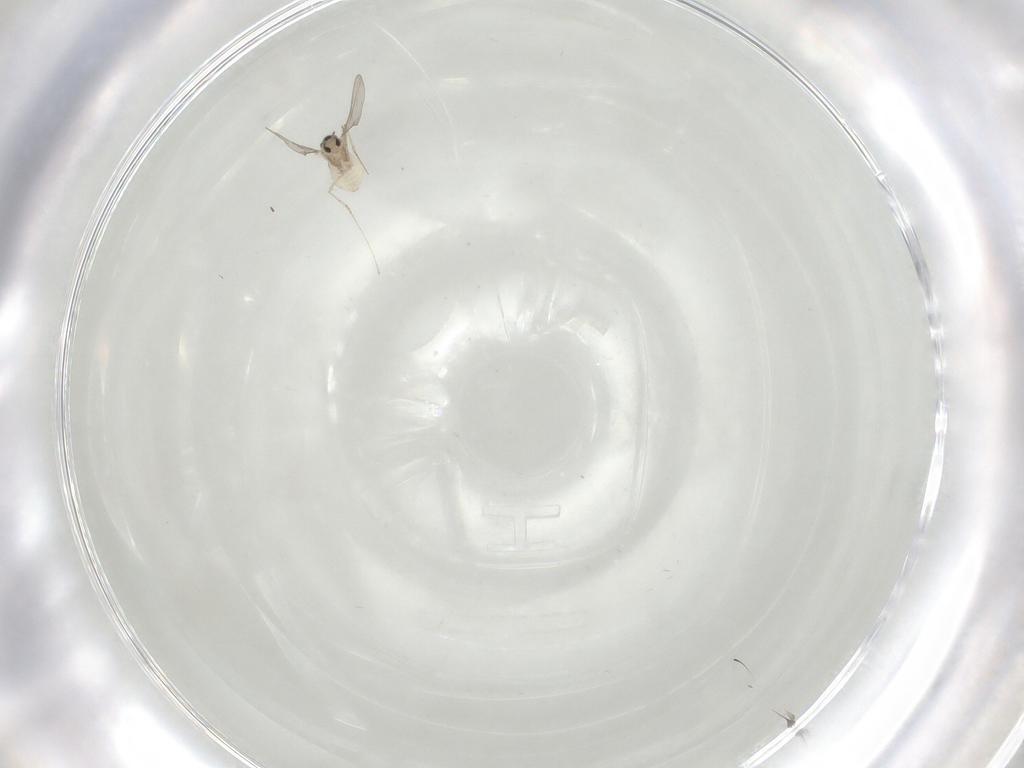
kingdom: Animalia
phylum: Arthropoda
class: Insecta
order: Diptera
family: Cecidomyiidae
